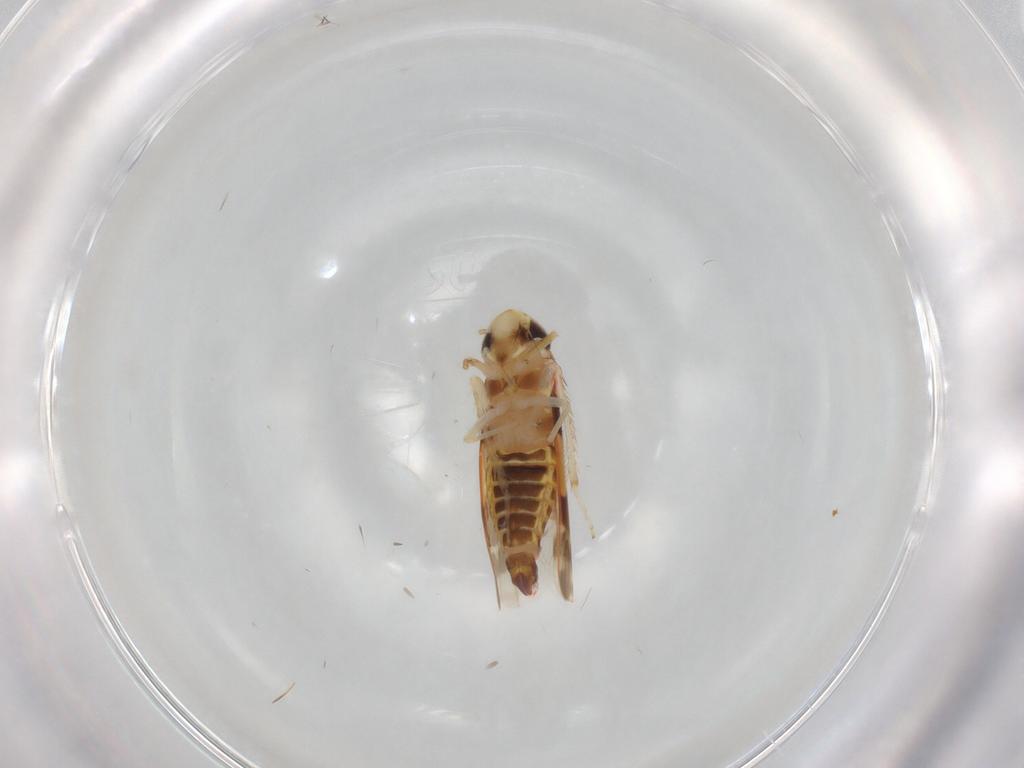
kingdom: Animalia
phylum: Arthropoda
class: Insecta
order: Hemiptera
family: Cicadellidae
